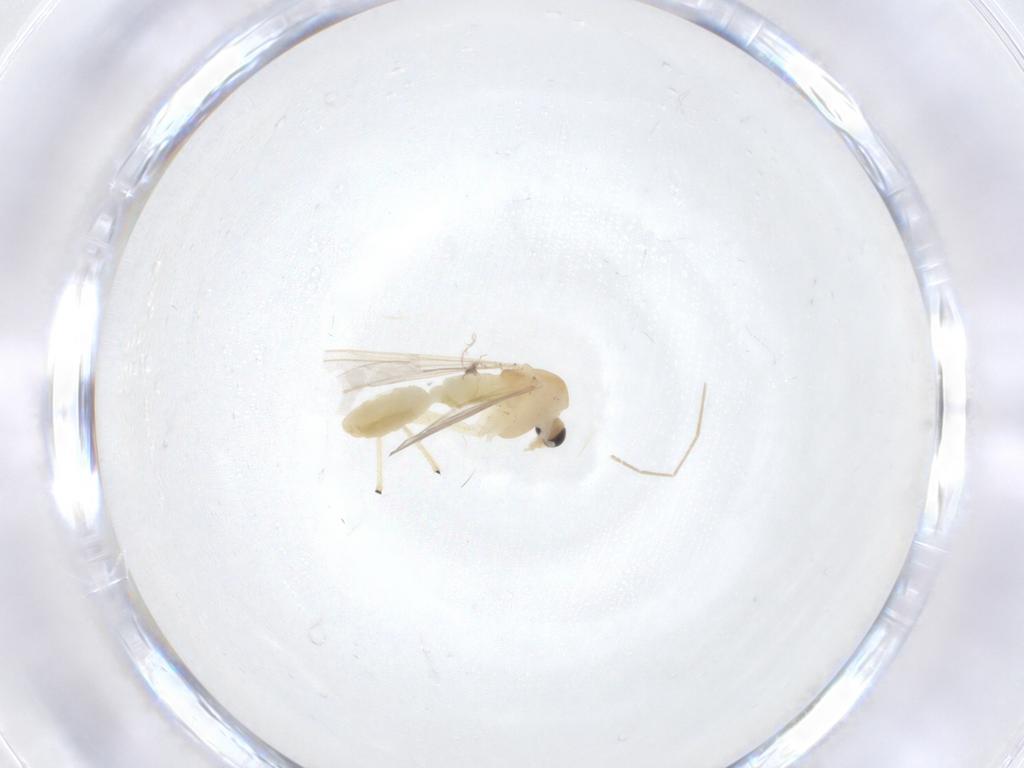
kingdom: Animalia
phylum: Arthropoda
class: Insecta
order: Diptera
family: Chironomidae
